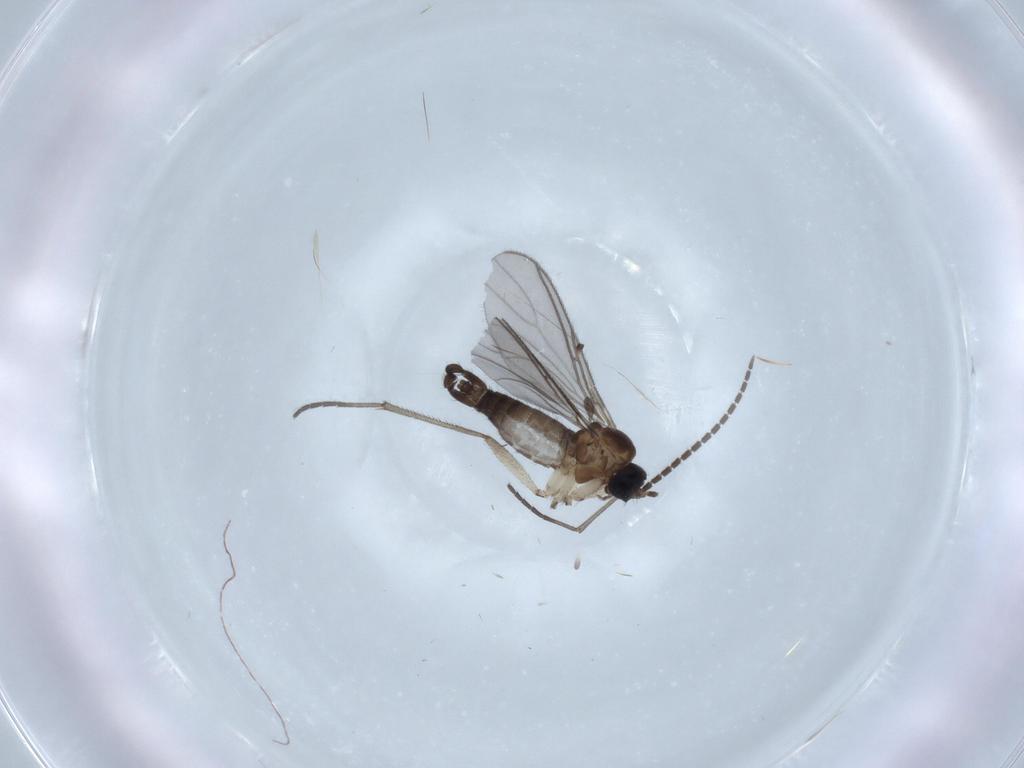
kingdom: Animalia
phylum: Arthropoda
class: Insecta
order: Diptera
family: Sciaridae
